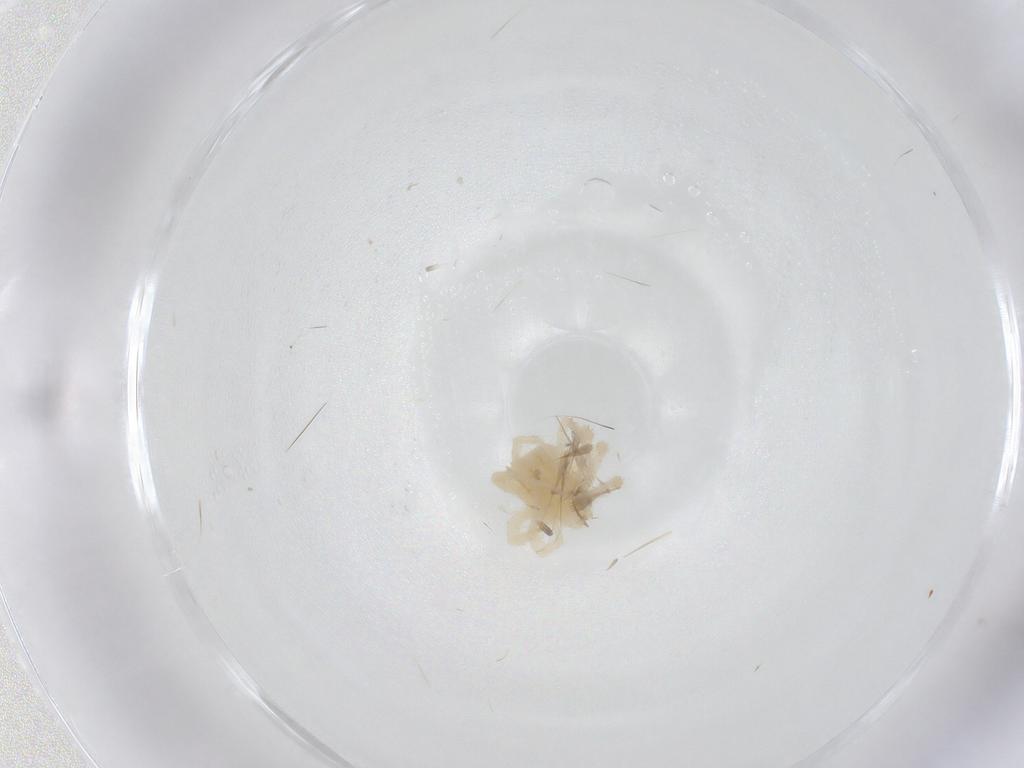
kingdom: Animalia
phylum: Arthropoda
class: Arachnida
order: Trombidiformes
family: Anystidae
